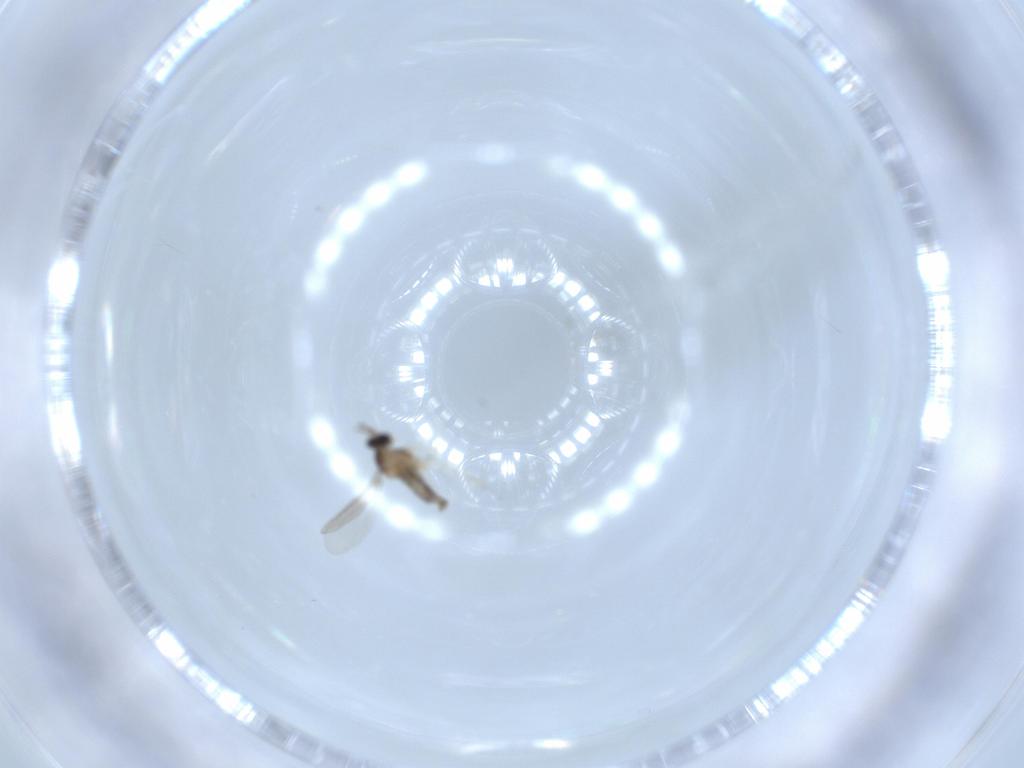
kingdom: Animalia
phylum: Arthropoda
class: Insecta
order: Diptera
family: Cecidomyiidae
